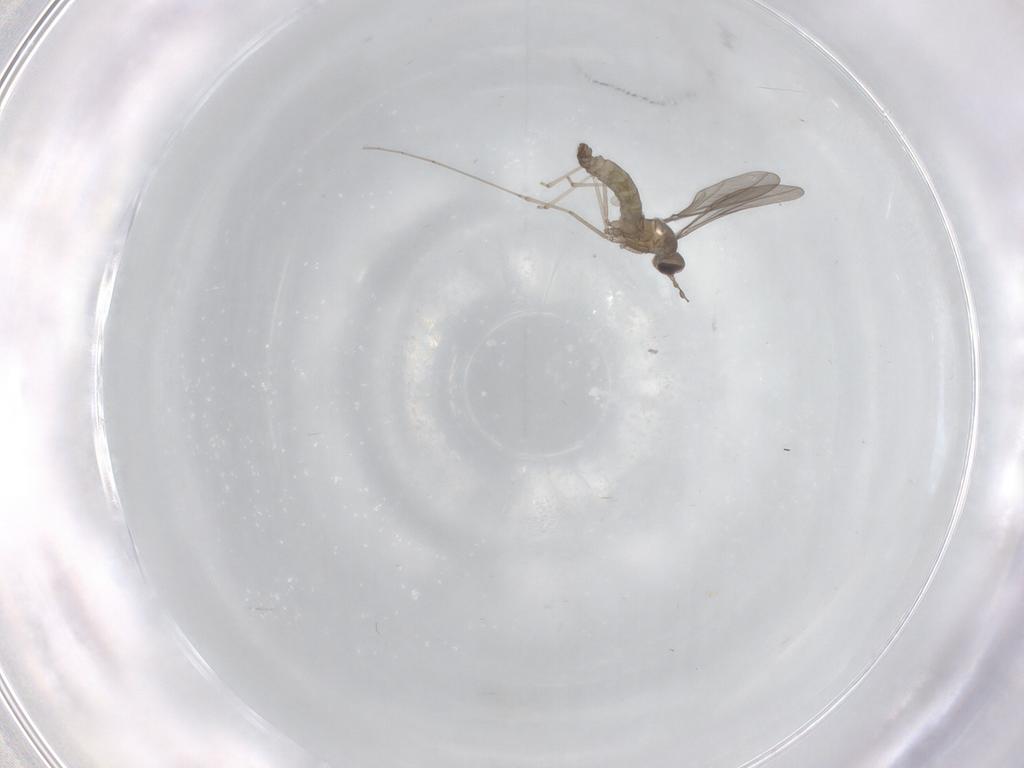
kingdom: Animalia
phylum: Arthropoda
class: Insecta
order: Diptera
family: Phoridae
